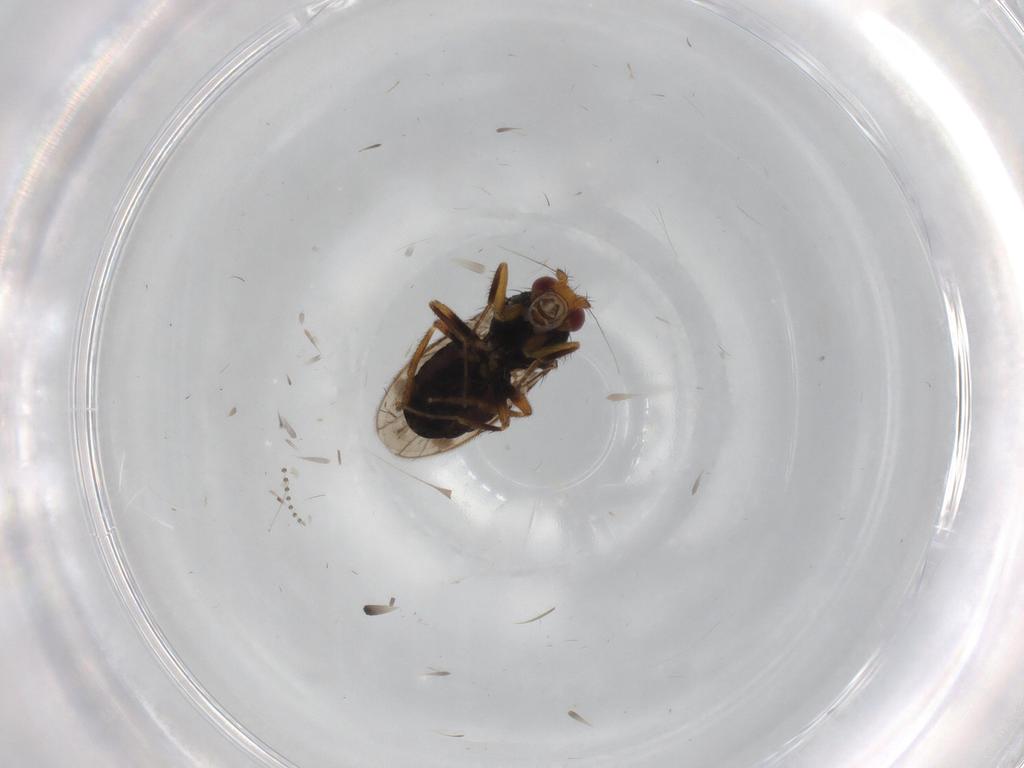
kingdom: Animalia
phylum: Arthropoda
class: Insecta
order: Diptera
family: Sphaeroceridae
